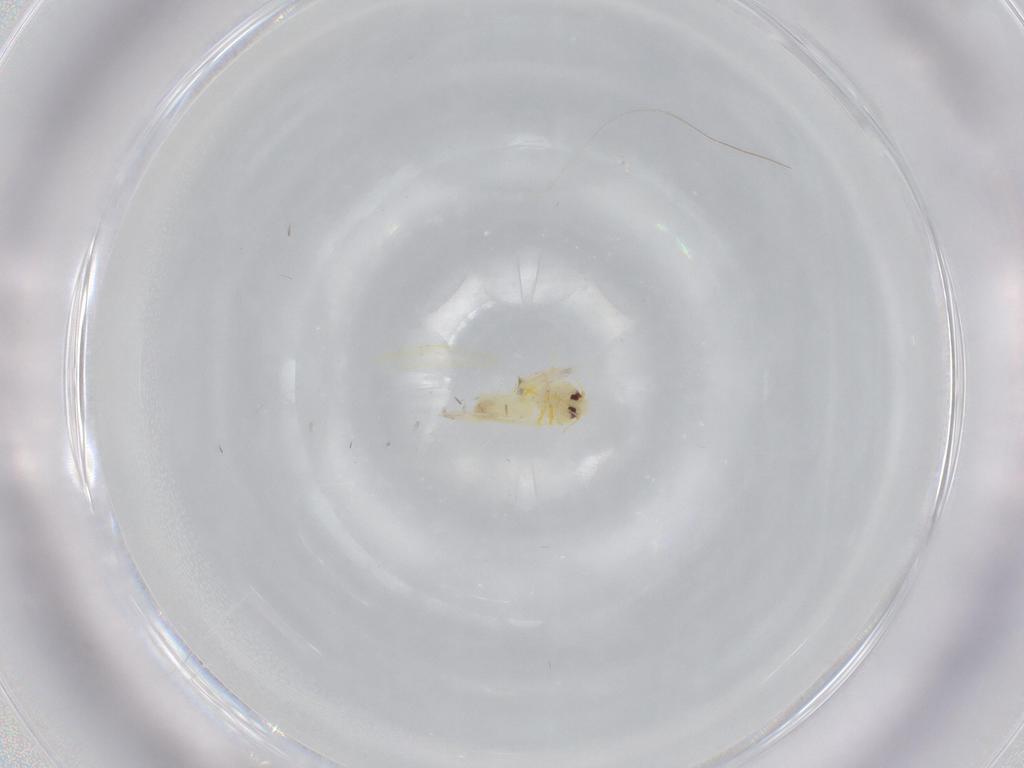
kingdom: Animalia
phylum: Arthropoda
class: Insecta
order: Hemiptera
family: Aleyrodidae
